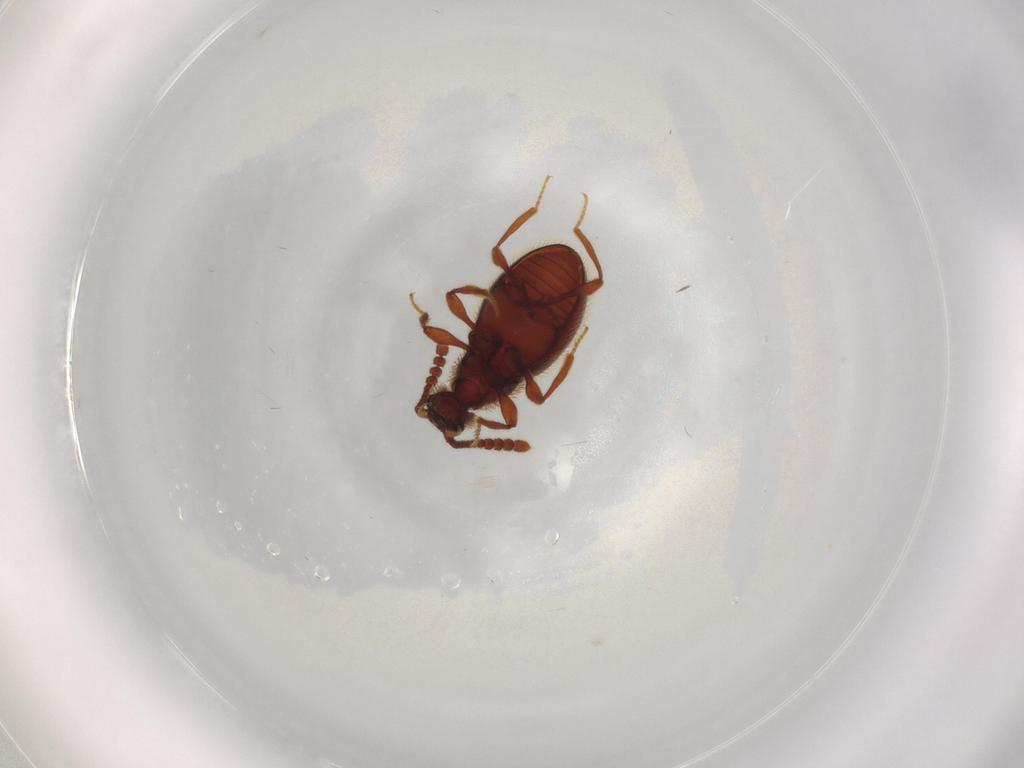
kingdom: Animalia
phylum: Arthropoda
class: Insecta
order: Coleoptera
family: Staphylinidae
